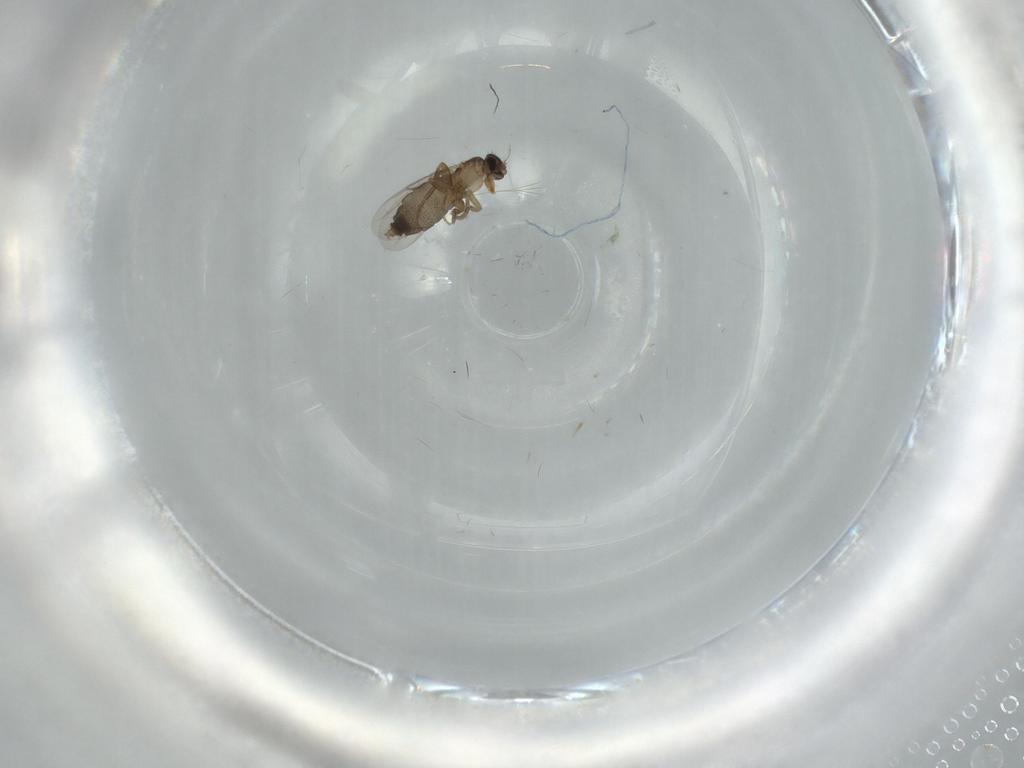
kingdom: Animalia
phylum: Arthropoda
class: Insecta
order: Diptera
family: Phoridae
